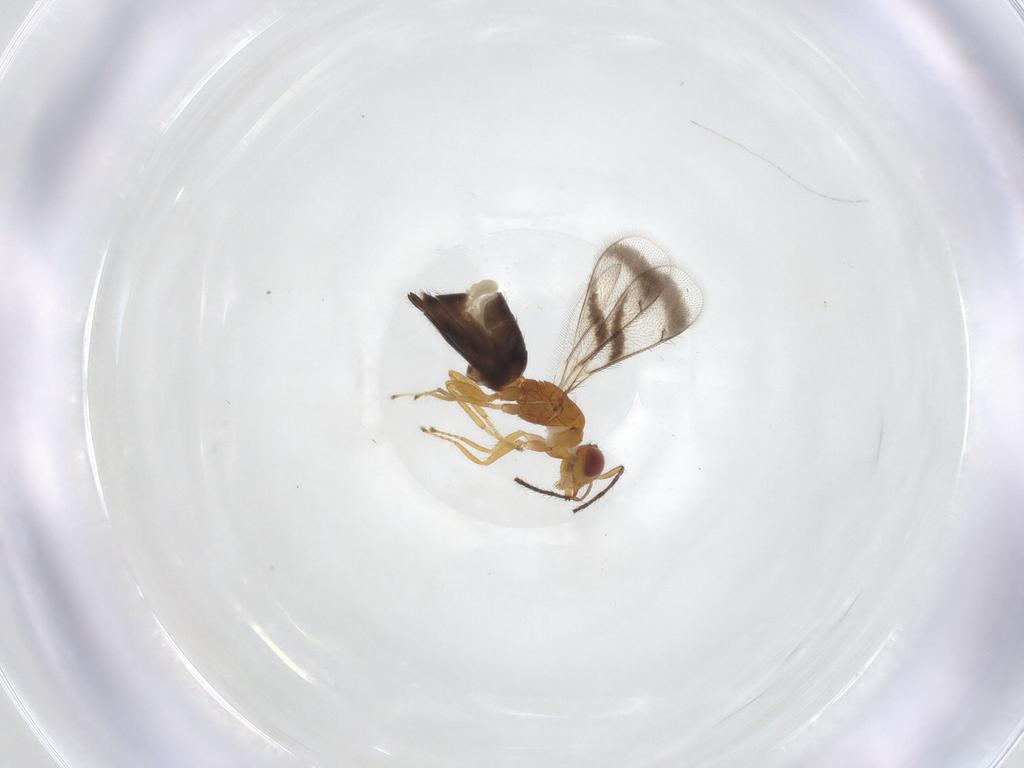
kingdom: Animalia
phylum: Arthropoda
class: Insecta
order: Hymenoptera
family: Eulophidae
